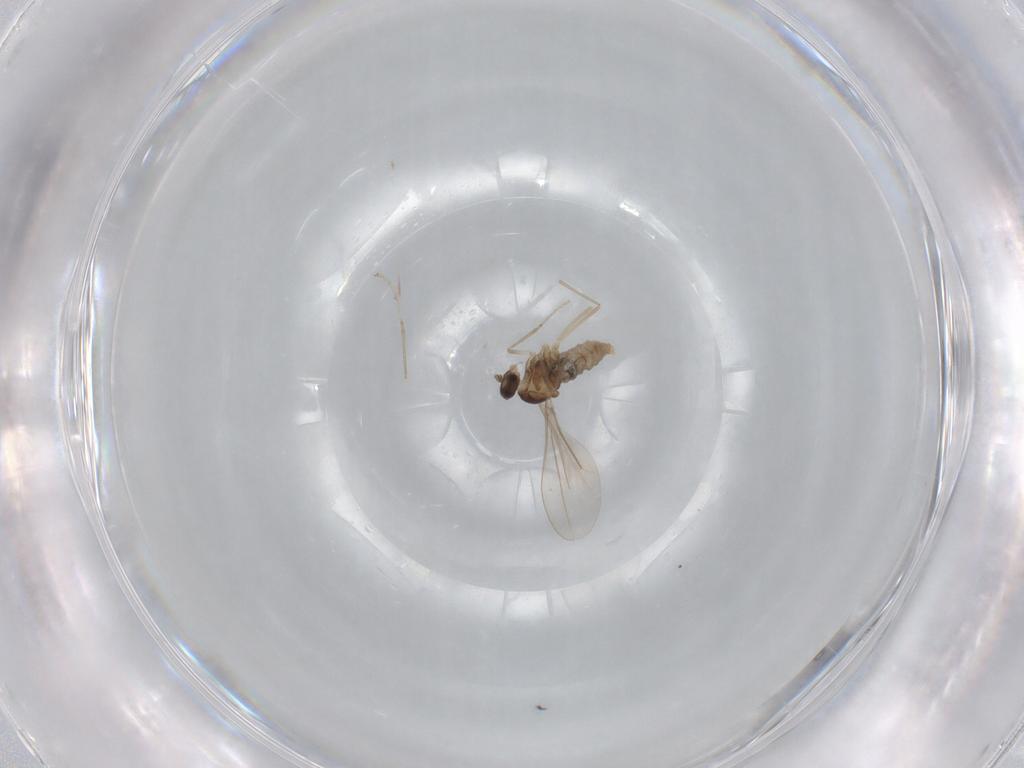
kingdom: Animalia
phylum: Arthropoda
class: Insecta
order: Diptera
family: Cecidomyiidae
